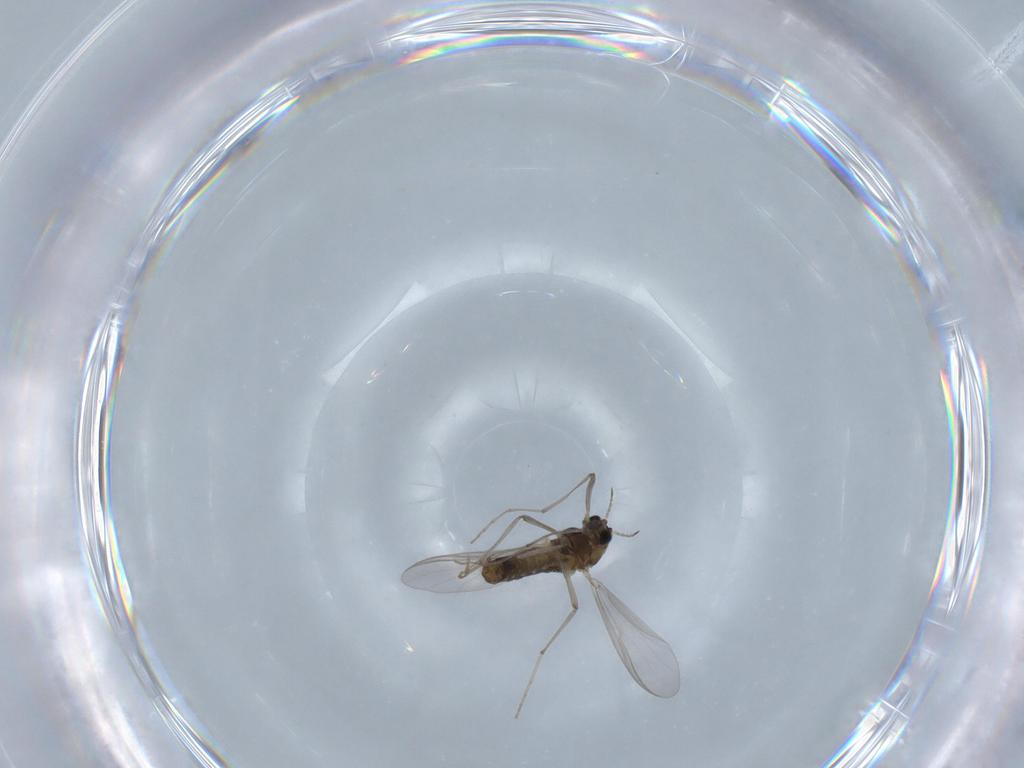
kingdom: Animalia
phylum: Arthropoda
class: Insecta
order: Diptera
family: Chironomidae
